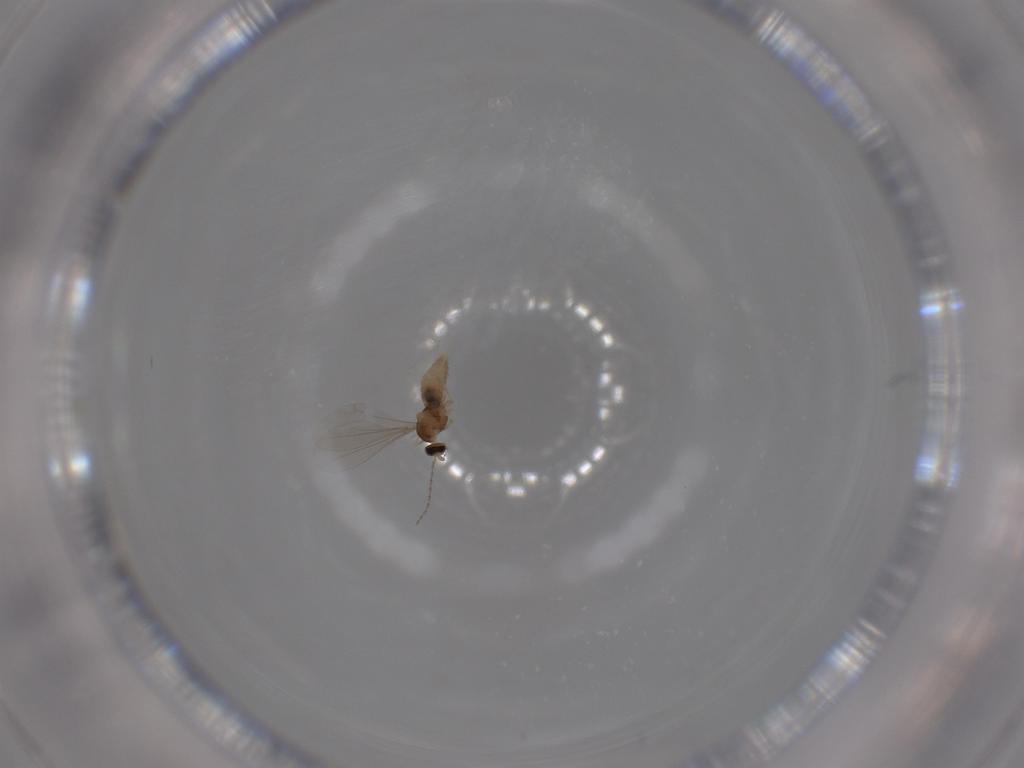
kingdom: Animalia
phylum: Arthropoda
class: Insecta
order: Diptera
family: Cecidomyiidae
